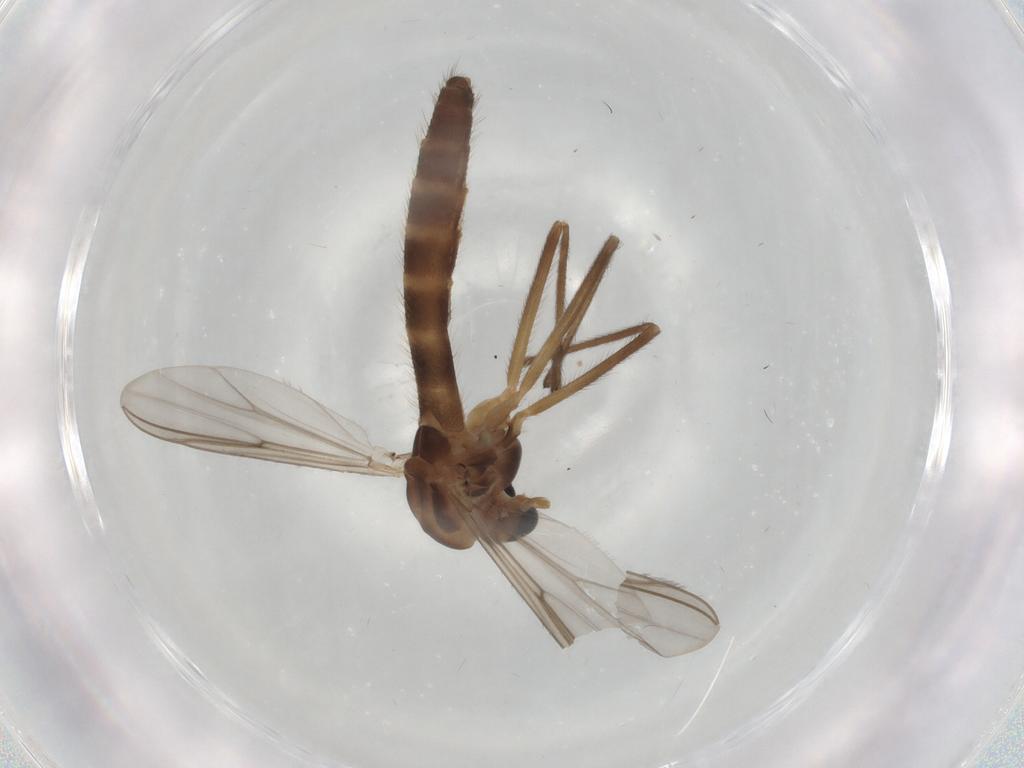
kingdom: Animalia
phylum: Arthropoda
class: Insecta
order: Diptera
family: Chironomidae
